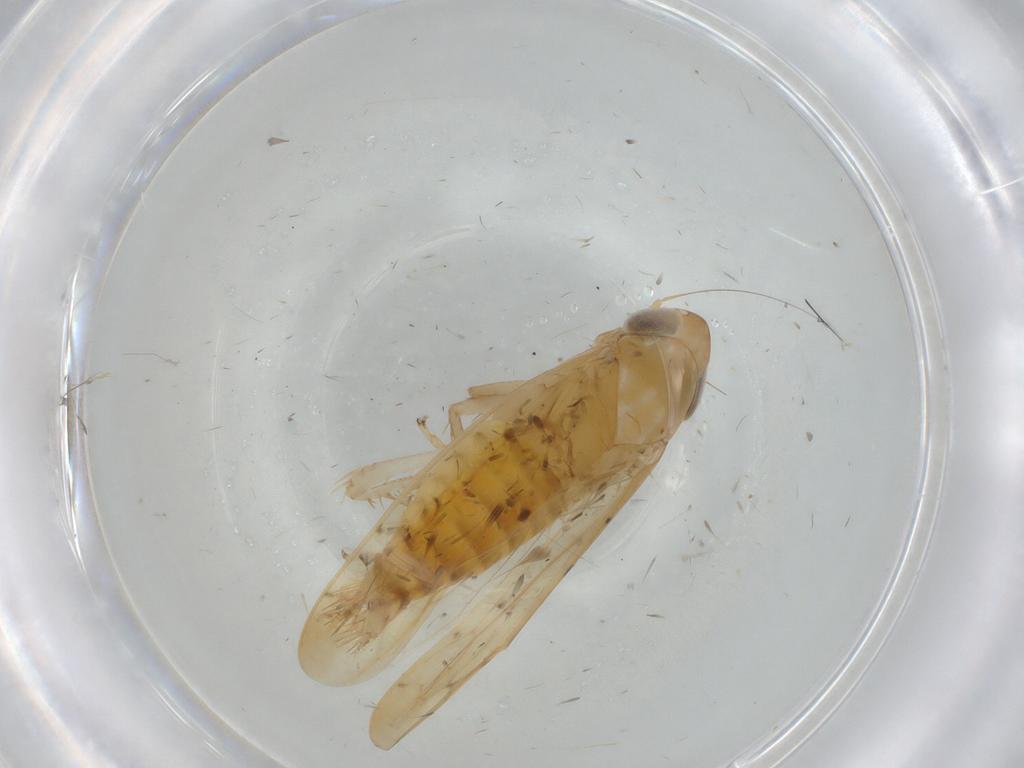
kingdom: Animalia
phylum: Arthropoda
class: Insecta
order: Hemiptera
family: Cicadellidae
